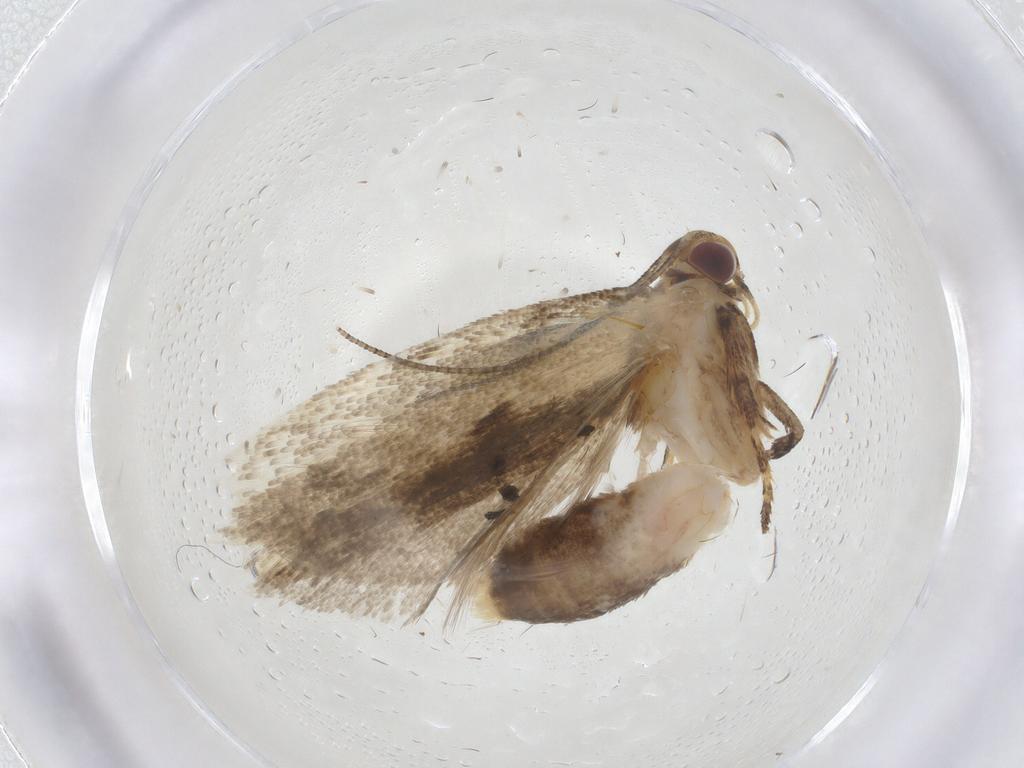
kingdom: Animalia
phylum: Arthropoda
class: Insecta
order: Lepidoptera
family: Gelechiidae
